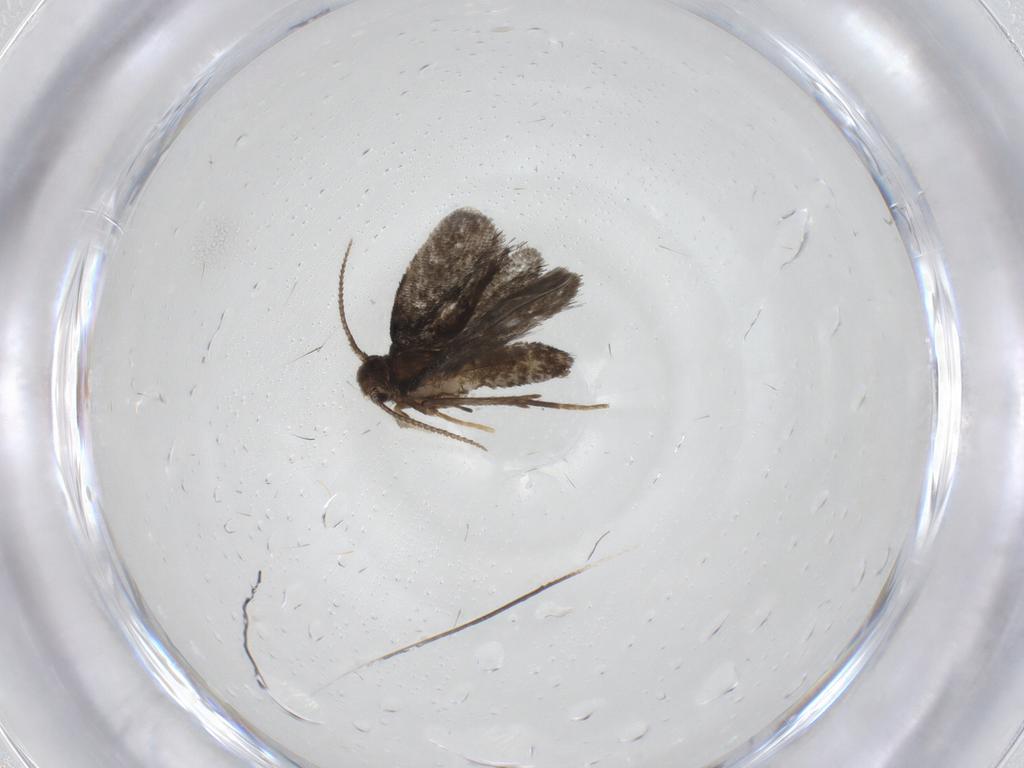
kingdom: Animalia
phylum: Arthropoda
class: Insecta
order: Lepidoptera
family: Psychidae
